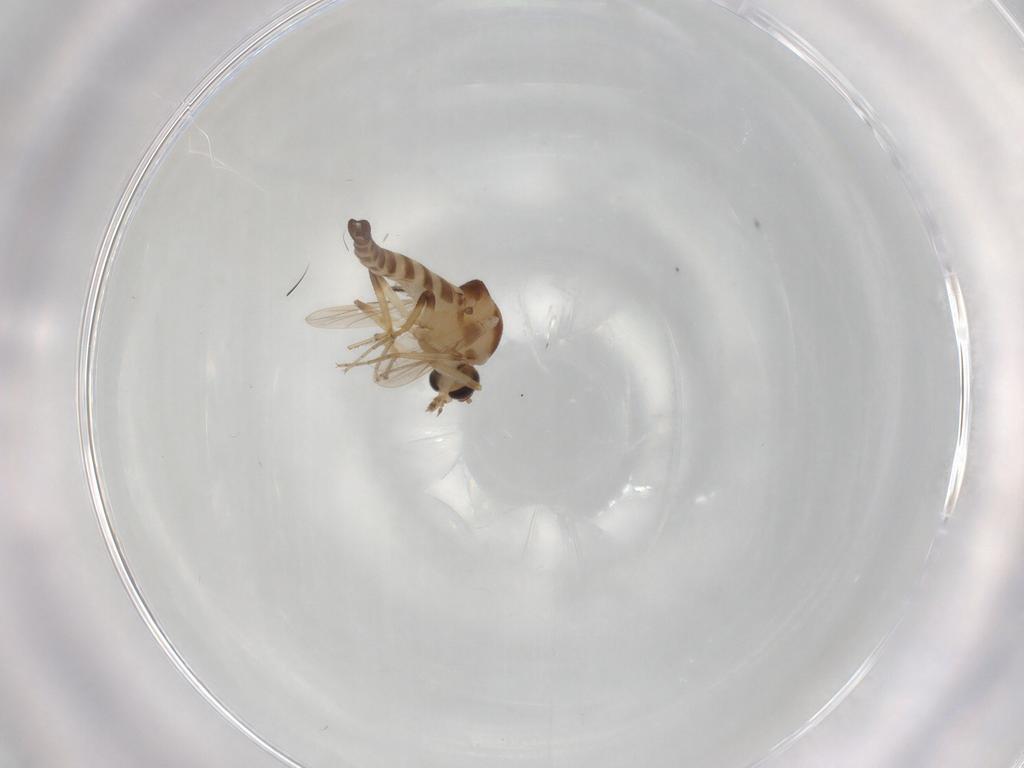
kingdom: Animalia
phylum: Arthropoda
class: Insecta
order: Diptera
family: Ceratopogonidae
